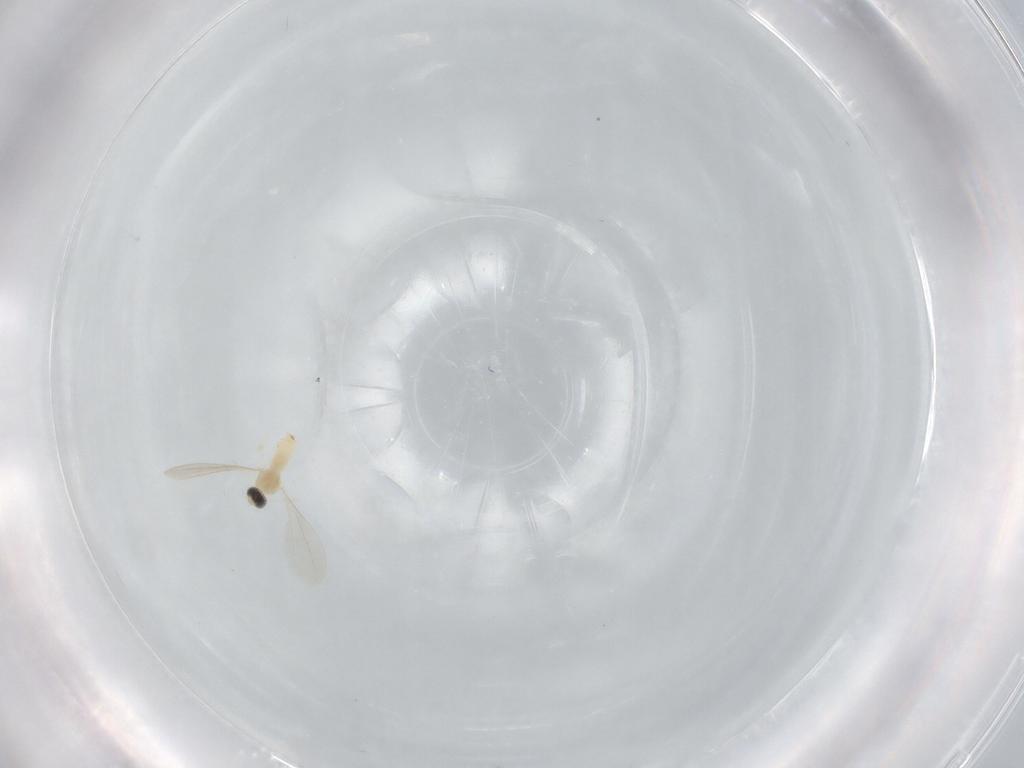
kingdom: Animalia
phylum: Arthropoda
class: Insecta
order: Diptera
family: Cecidomyiidae
